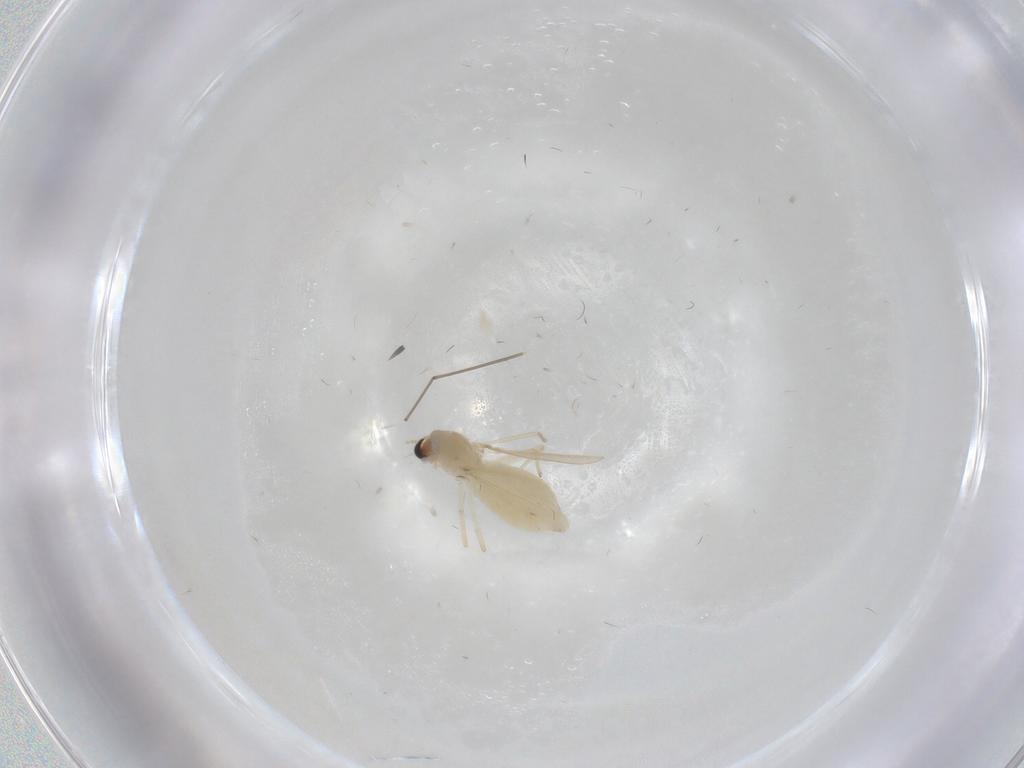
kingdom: Animalia
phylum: Arthropoda
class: Insecta
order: Diptera
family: Chironomidae
